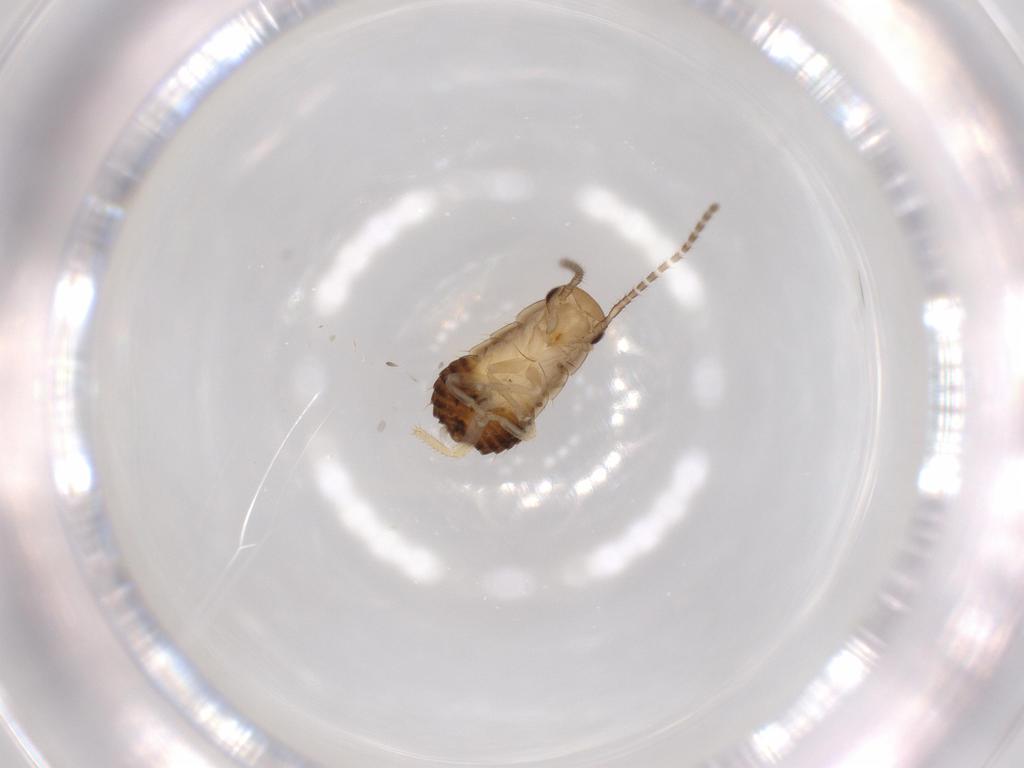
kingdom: Animalia
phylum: Arthropoda
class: Insecta
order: Blattodea
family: Ectobiidae
